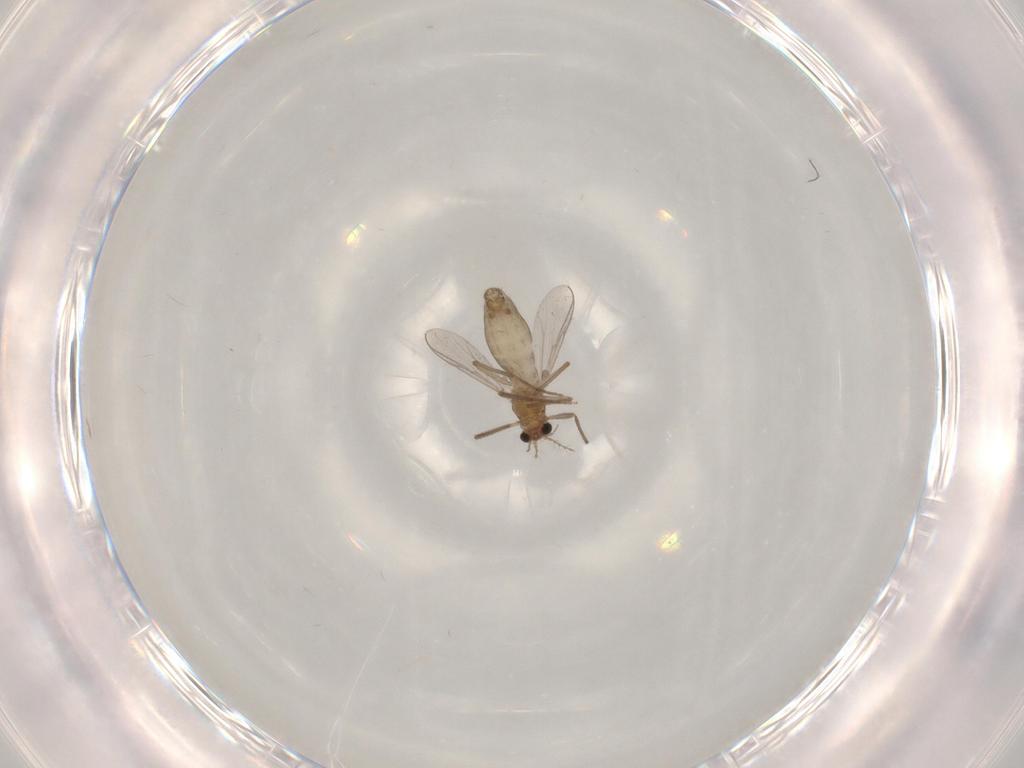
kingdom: Animalia
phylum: Arthropoda
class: Insecta
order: Diptera
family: Chironomidae
